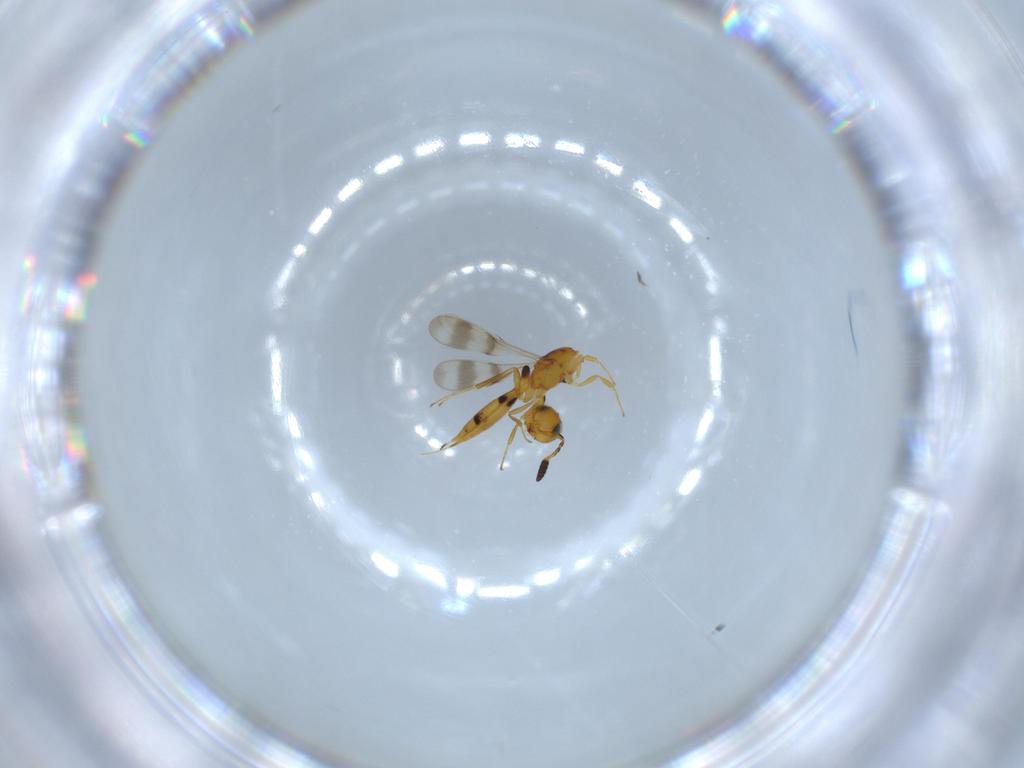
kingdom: Animalia
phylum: Arthropoda
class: Insecta
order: Hymenoptera
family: Scelionidae
